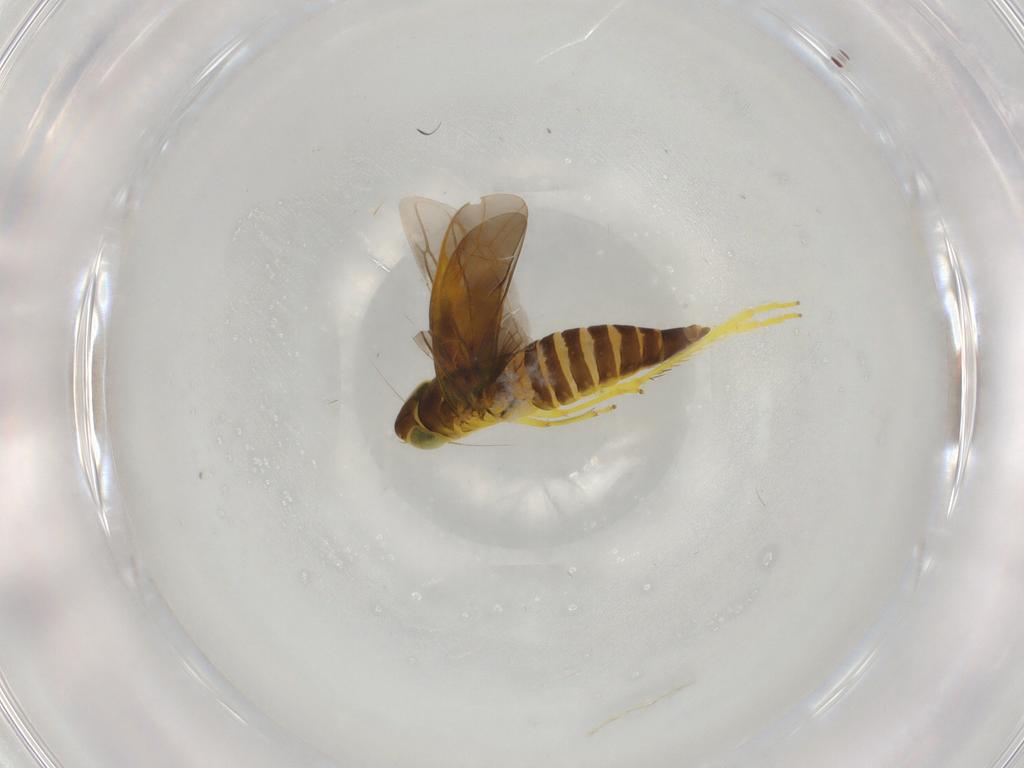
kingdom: Animalia
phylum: Arthropoda
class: Insecta
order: Hemiptera
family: Cicadellidae
